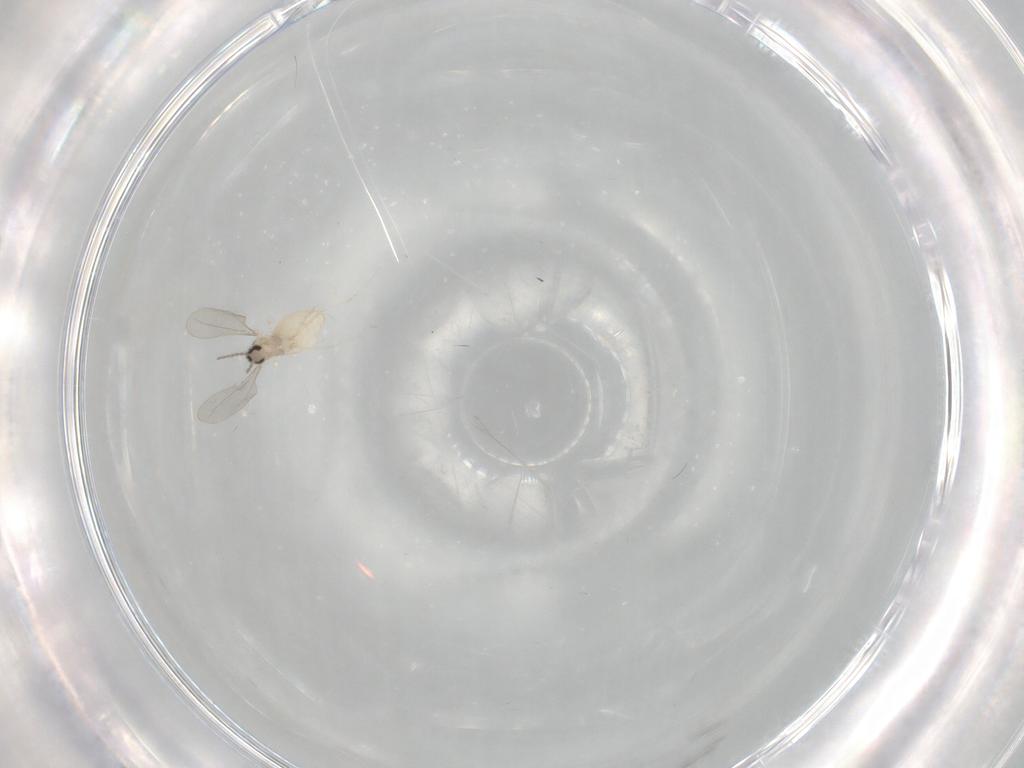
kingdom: Animalia
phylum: Arthropoda
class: Insecta
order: Diptera
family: Cecidomyiidae
